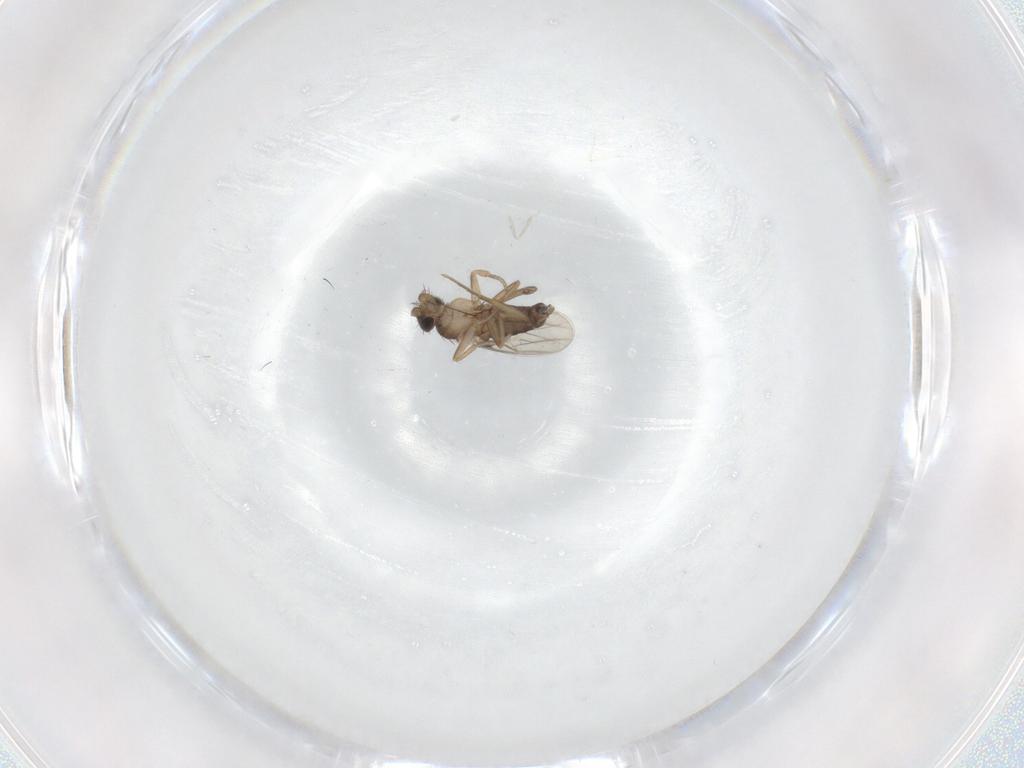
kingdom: Animalia
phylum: Arthropoda
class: Insecta
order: Diptera
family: Phoridae
